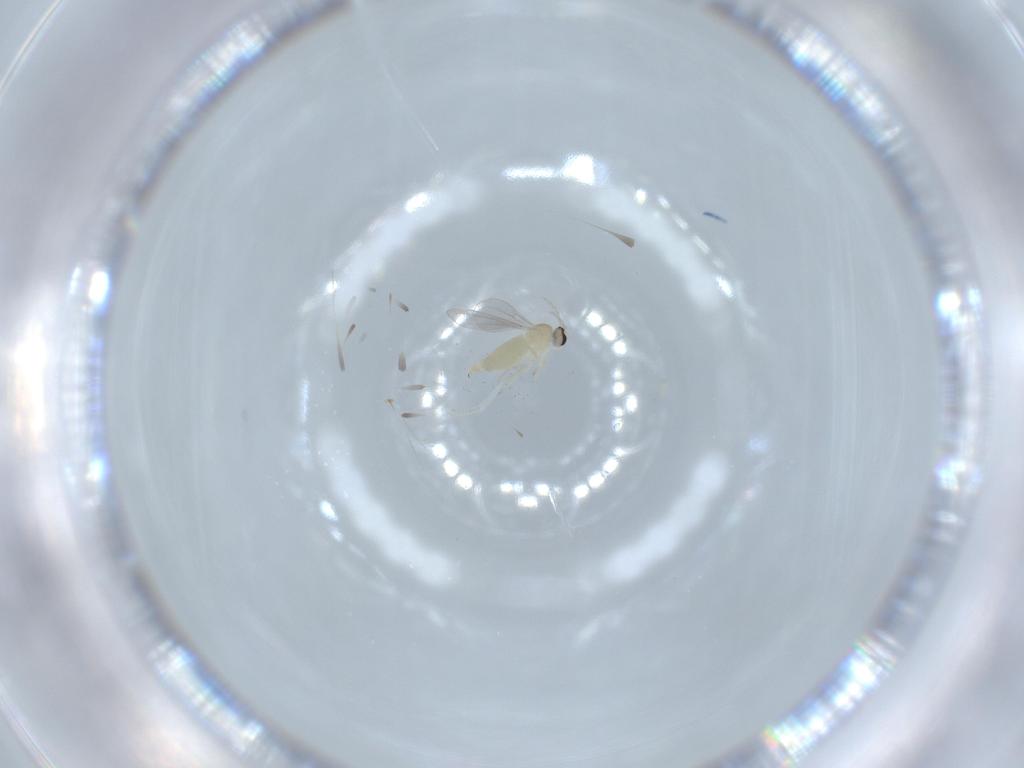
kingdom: Animalia
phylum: Arthropoda
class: Insecta
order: Diptera
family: Cecidomyiidae
